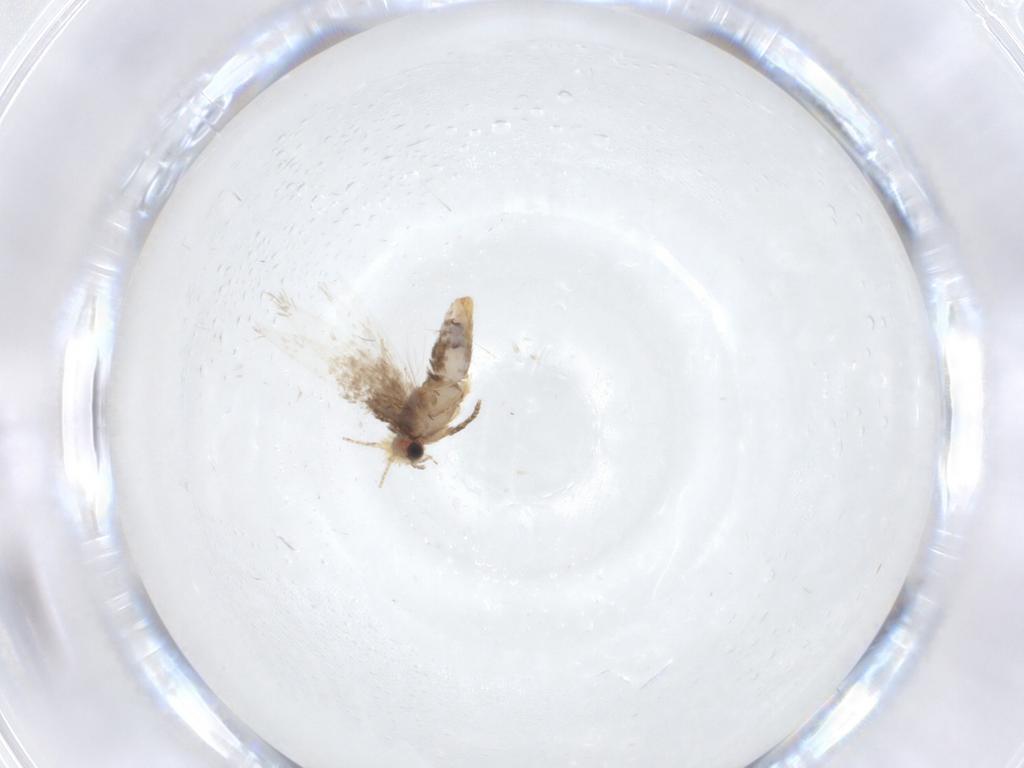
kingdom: Animalia
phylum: Arthropoda
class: Insecta
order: Lepidoptera
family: Nepticulidae
